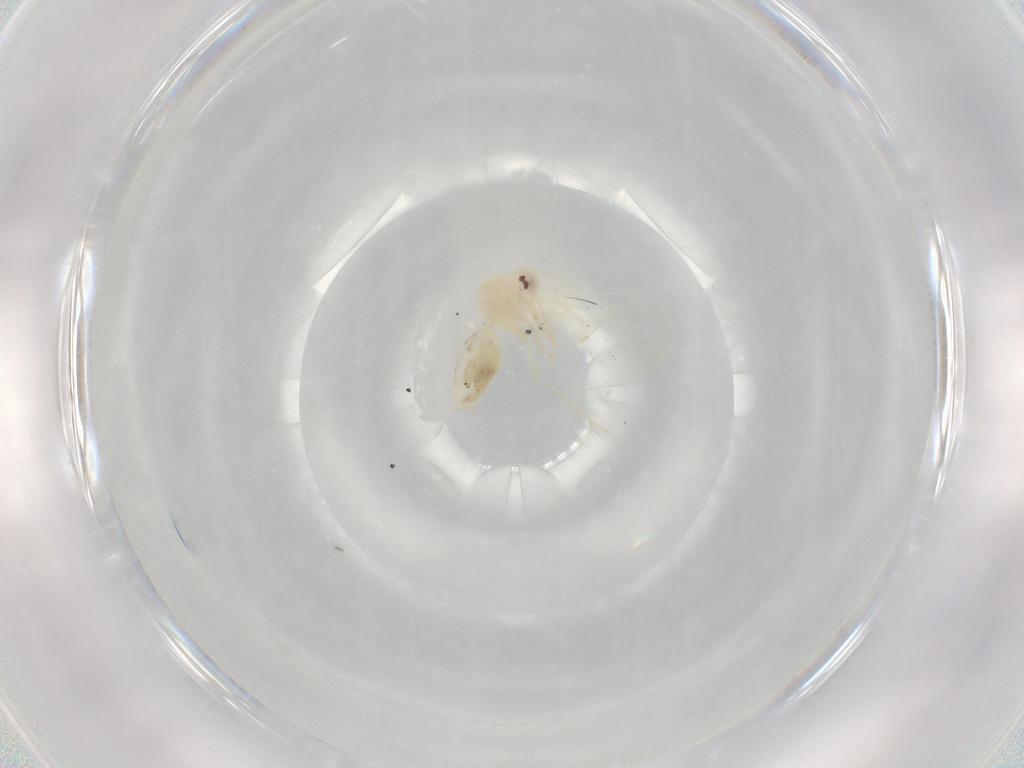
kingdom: Animalia
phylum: Arthropoda
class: Insecta
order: Hemiptera
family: Aleyrodidae
